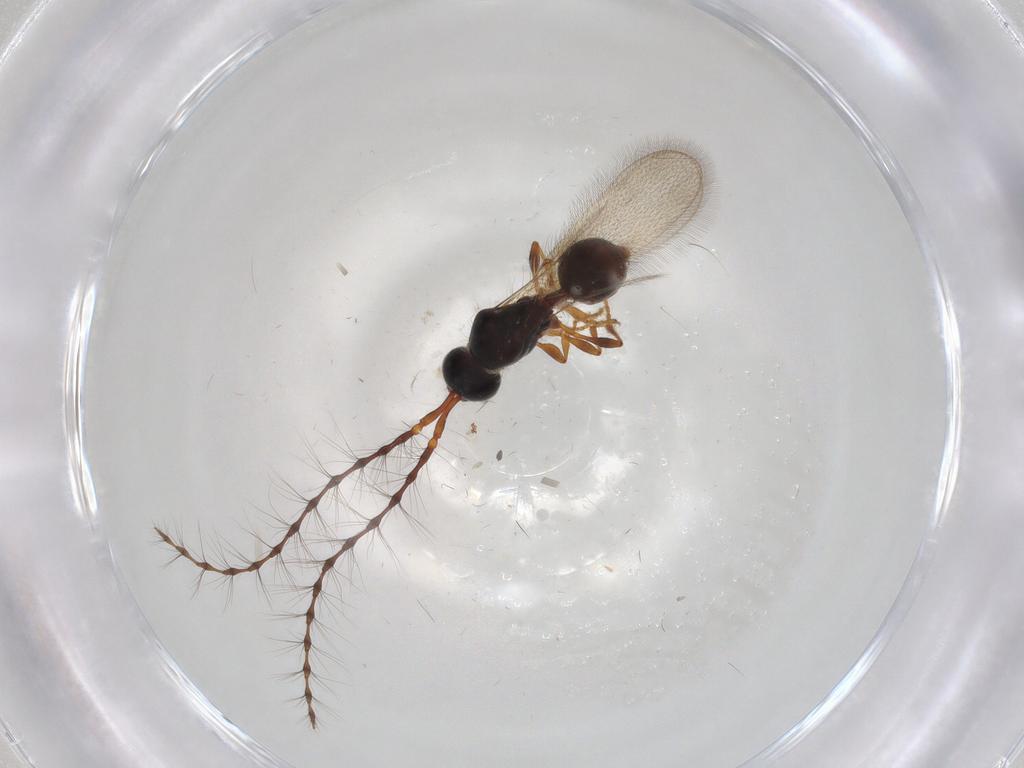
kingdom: Animalia
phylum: Arthropoda
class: Insecta
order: Hymenoptera
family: Diapriidae
